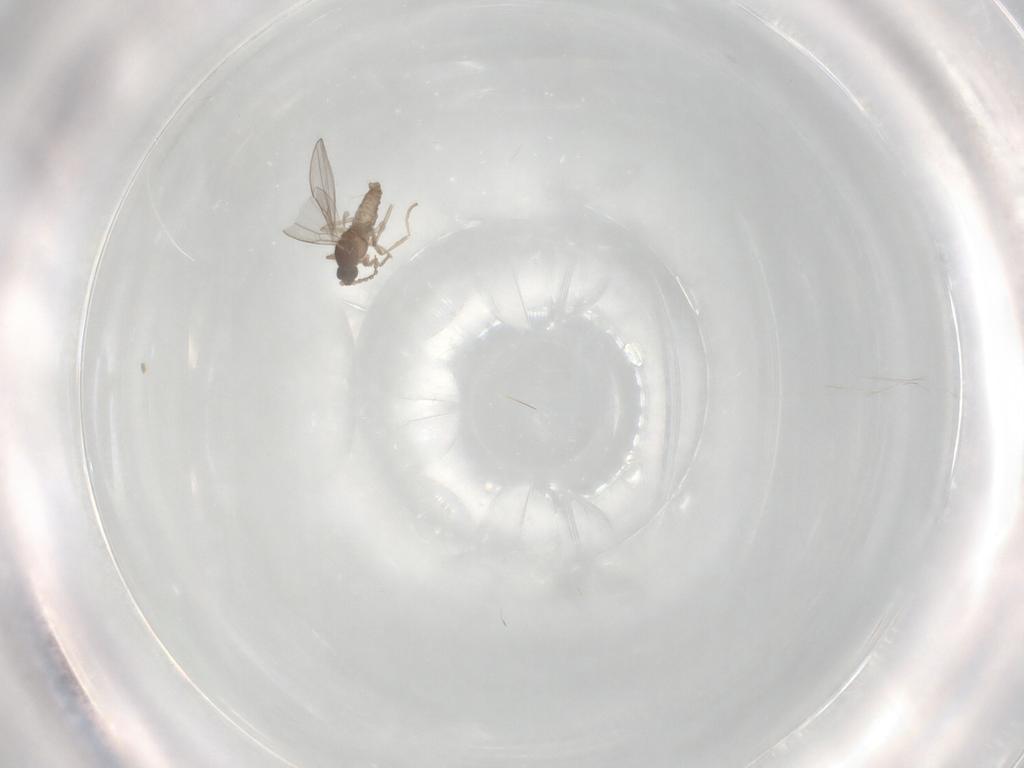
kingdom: Animalia
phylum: Arthropoda
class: Insecta
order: Diptera
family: Cecidomyiidae
